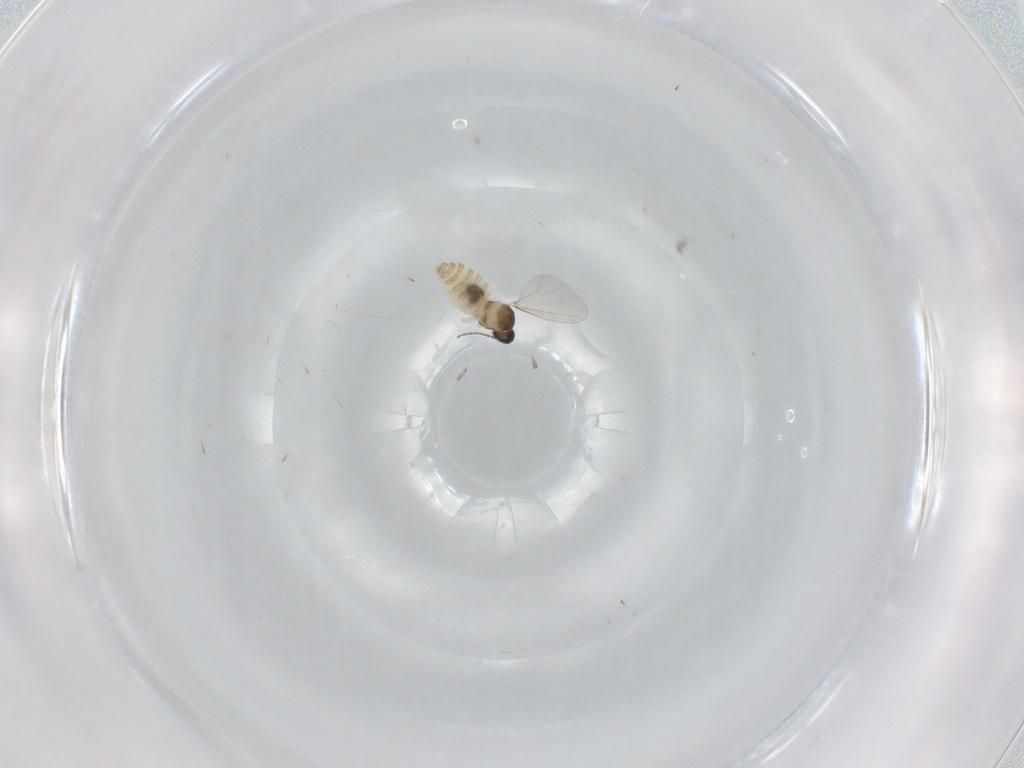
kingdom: Animalia
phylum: Arthropoda
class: Insecta
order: Diptera
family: Cecidomyiidae
